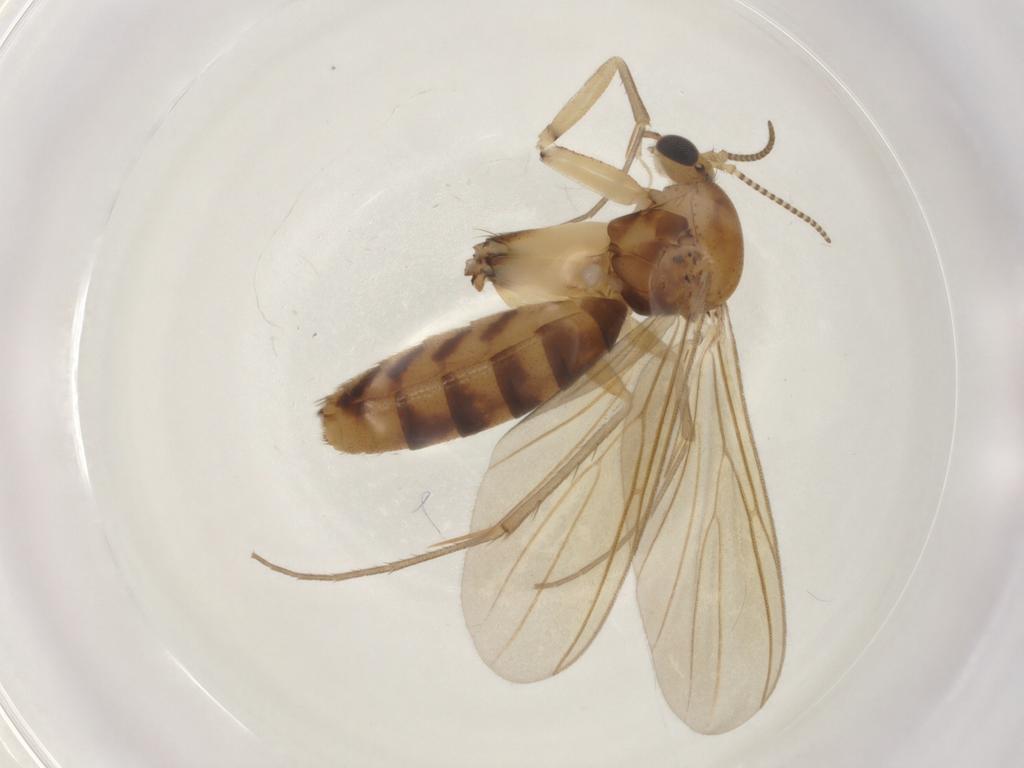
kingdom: Animalia
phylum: Arthropoda
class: Insecta
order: Diptera
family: Mycetophilidae
